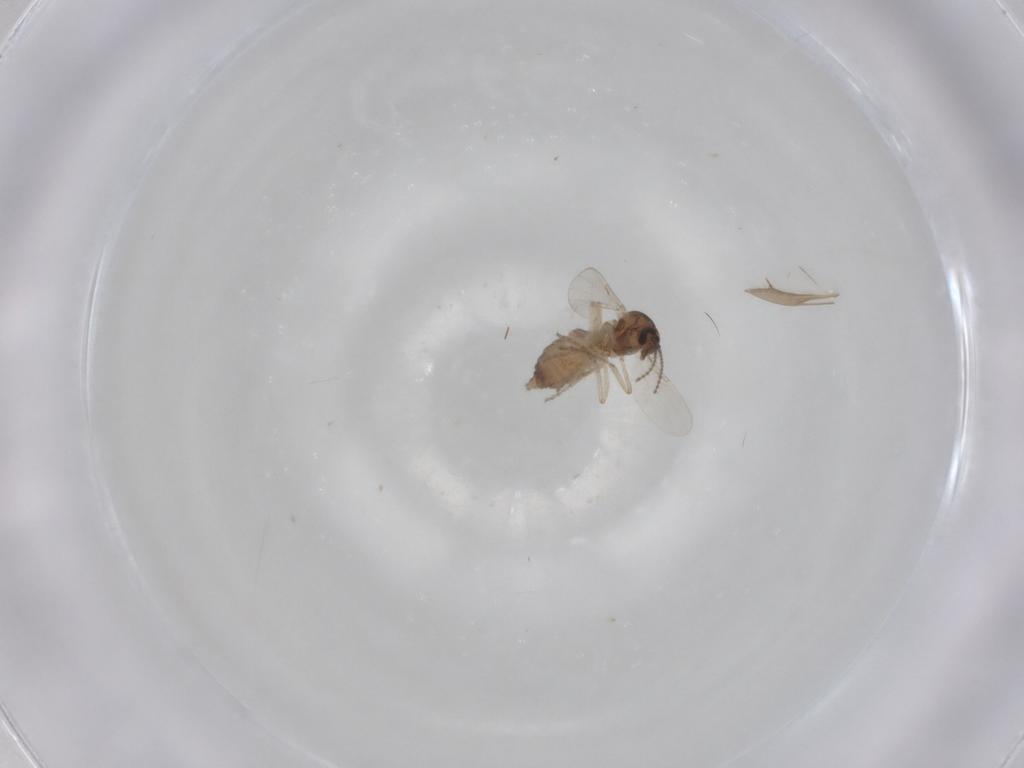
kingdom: Animalia
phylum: Arthropoda
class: Insecta
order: Diptera
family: Ceratopogonidae
